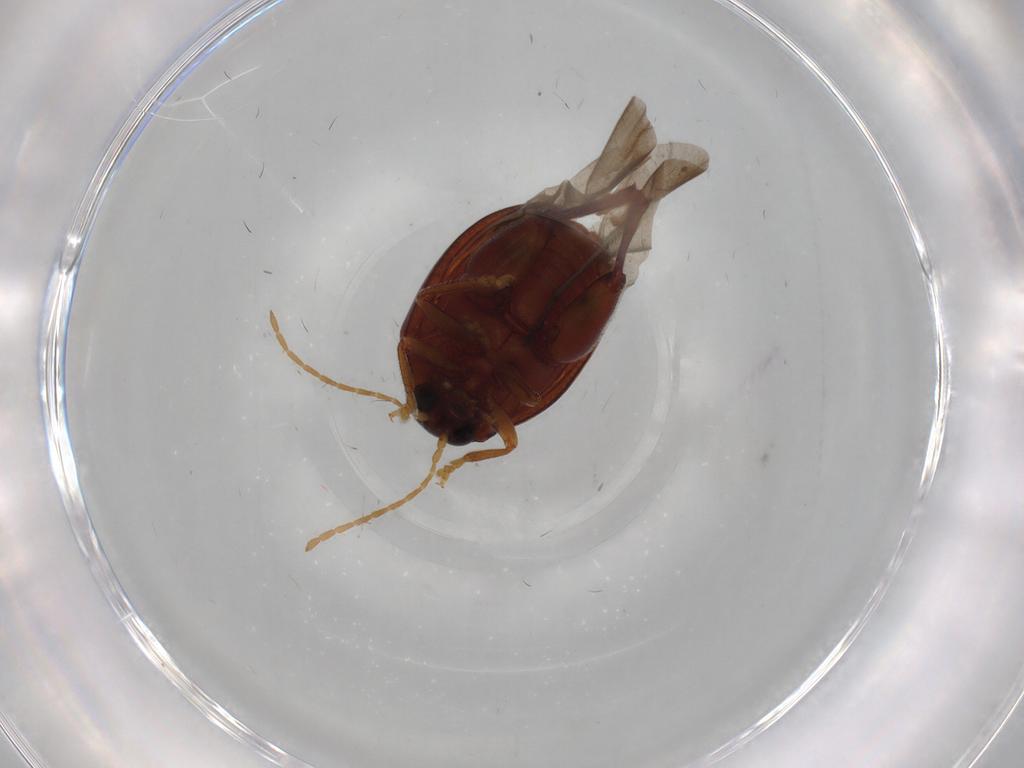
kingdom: Animalia
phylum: Arthropoda
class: Insecta
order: Coleoptera
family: Chrysomelidae
